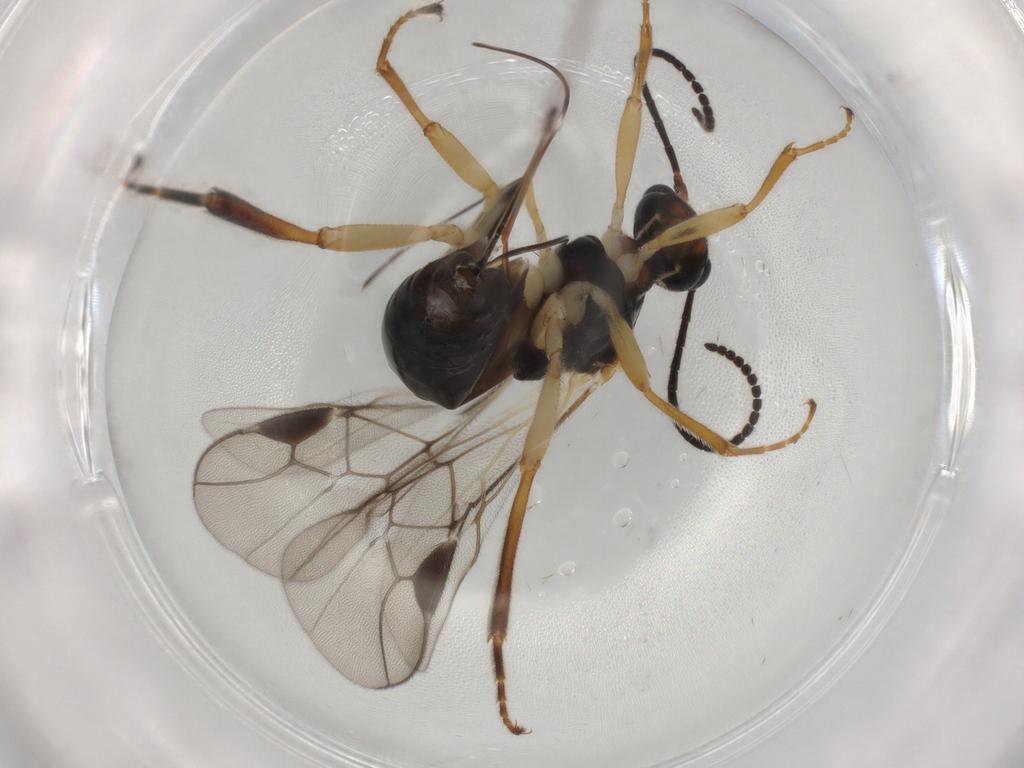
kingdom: Animalia
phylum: Arthropoda
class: Insecta
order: Hymenoptera
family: Braconidae
